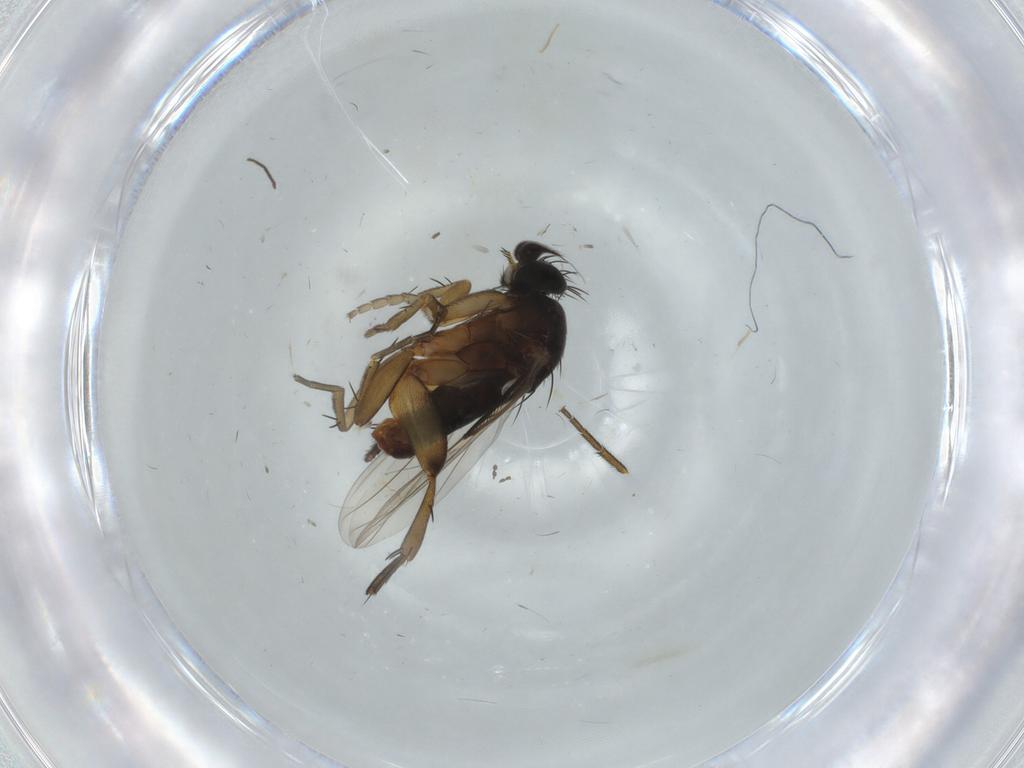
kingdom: Animalia
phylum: Arthropoda
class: Insecta
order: Diptera
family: Phoridae
